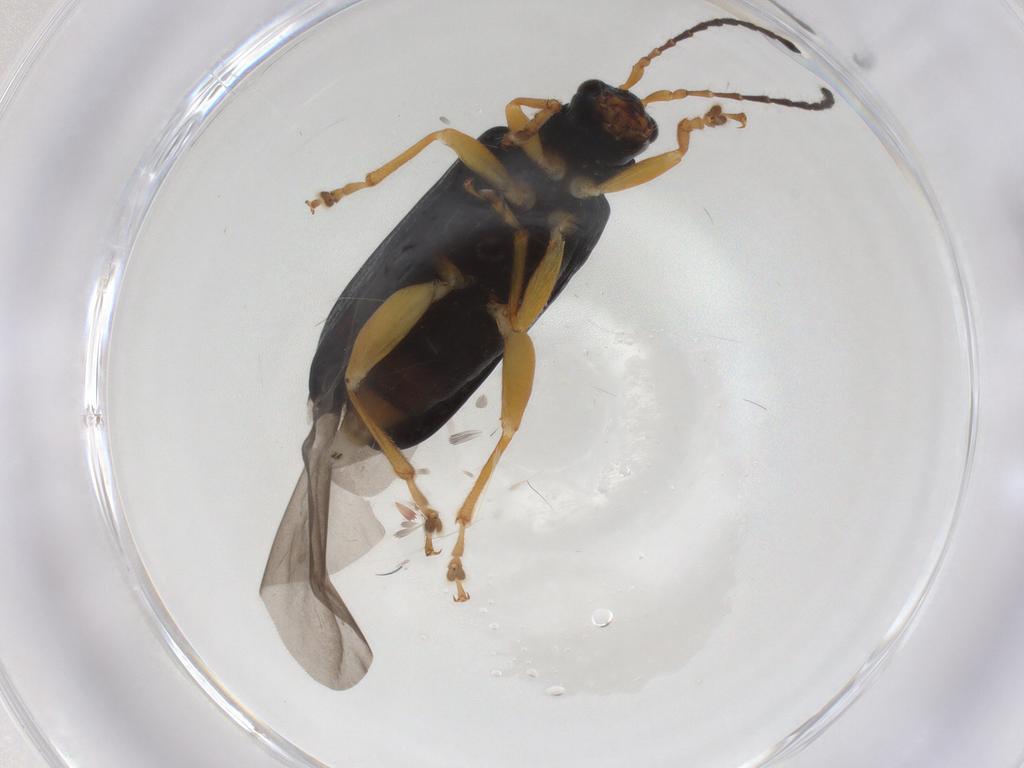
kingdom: Animalia
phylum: Arthropoda
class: Insecta
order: Coleoptera
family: Chrysomelidae
